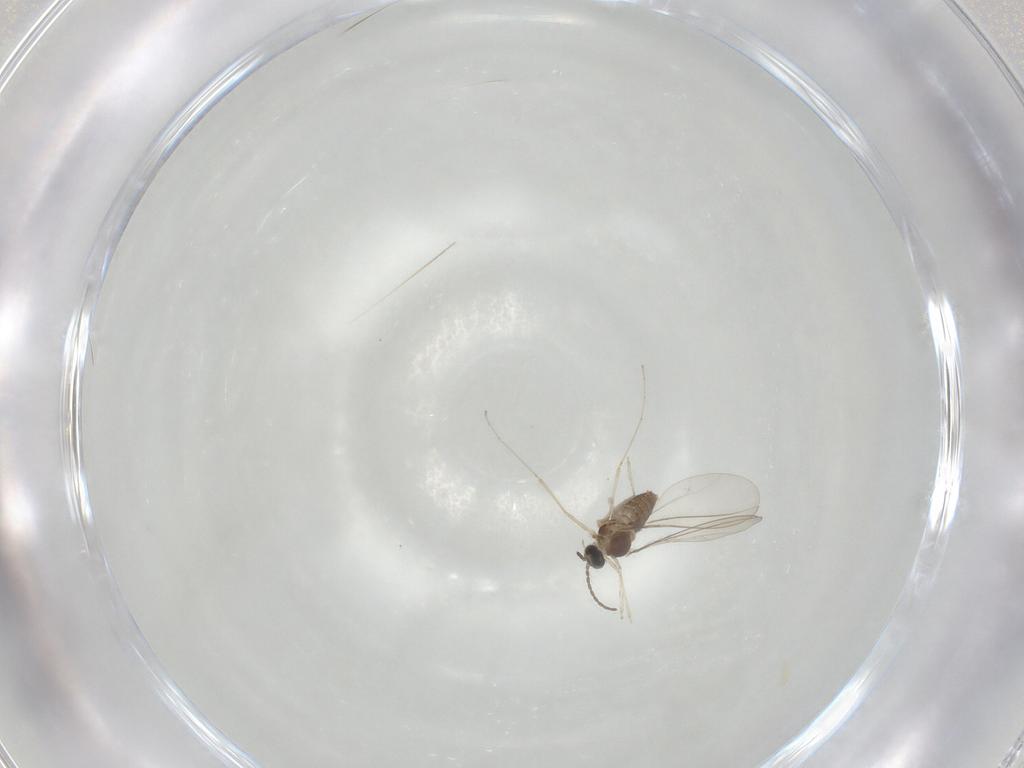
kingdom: Animalia
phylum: Arthropoda
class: Insecta
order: Diptera
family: Cecidomyiidae
